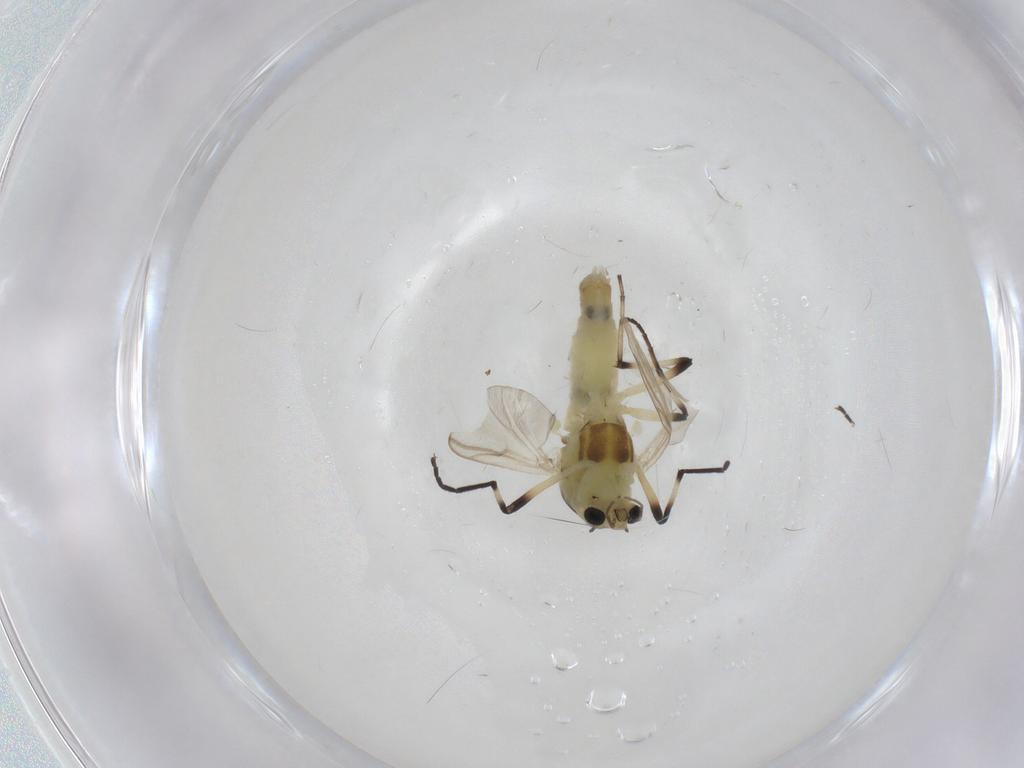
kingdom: Animalia
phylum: Arthropoda
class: Insecta
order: Diptera
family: Chironomidae
